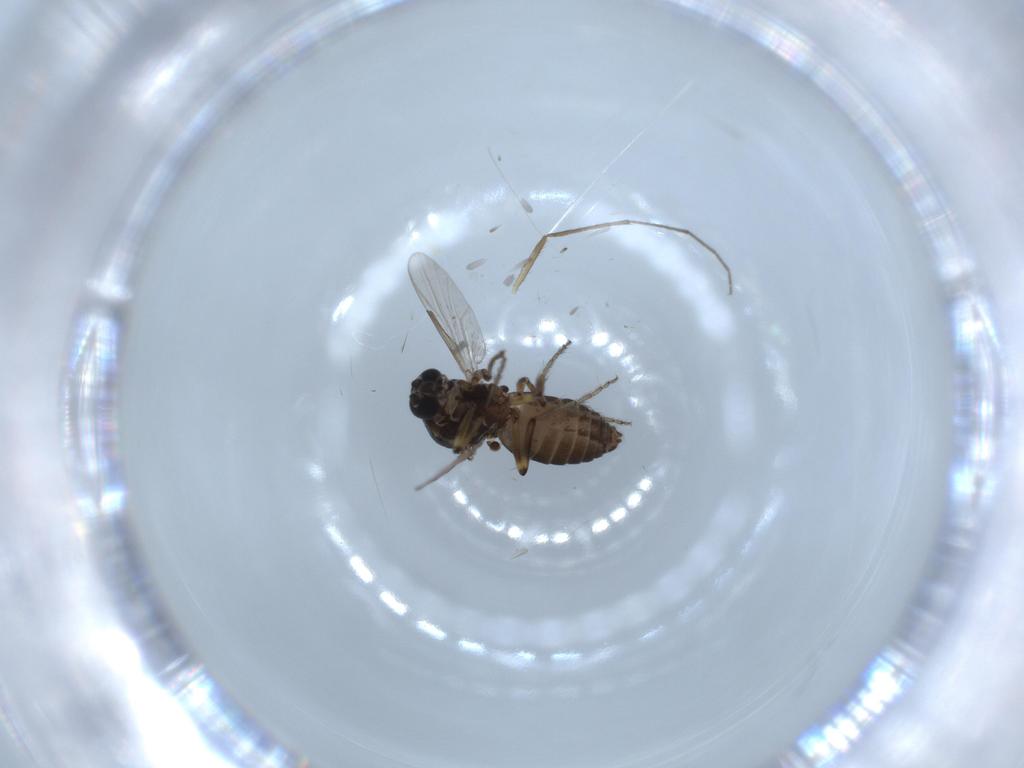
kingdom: Animalia
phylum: Arthropoda
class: Insecta
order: Diptera
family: Ceratopogonidae
